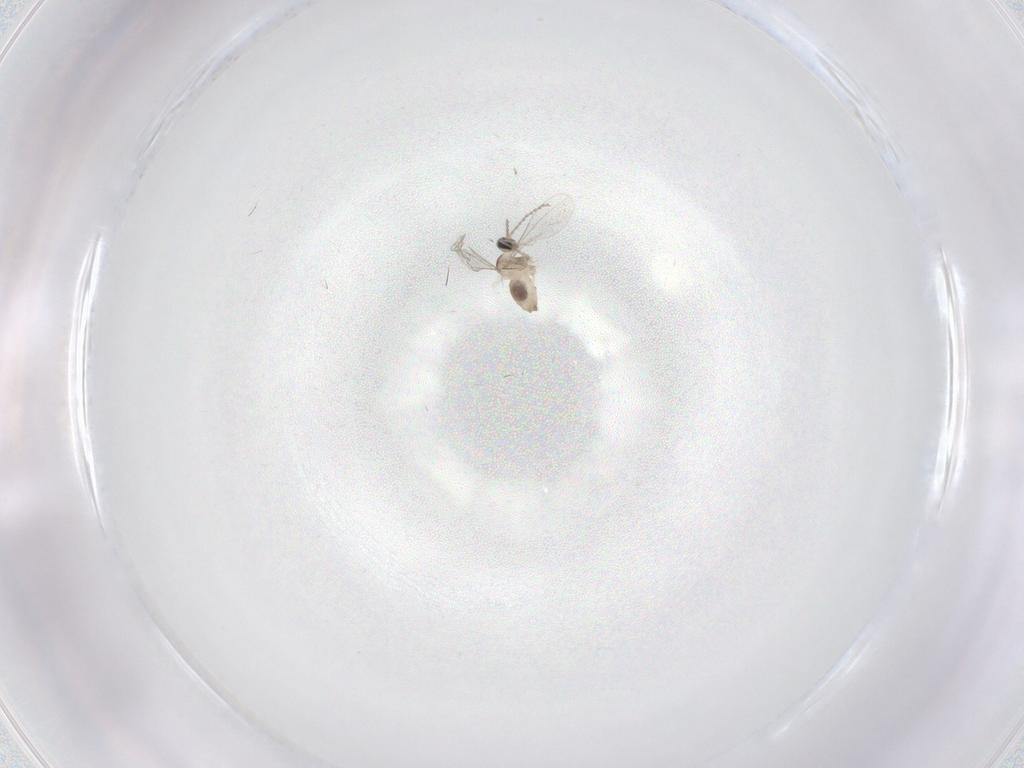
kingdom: Animalia
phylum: Arthropoda
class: Insecta
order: Diptera
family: Cecidomyiidae
